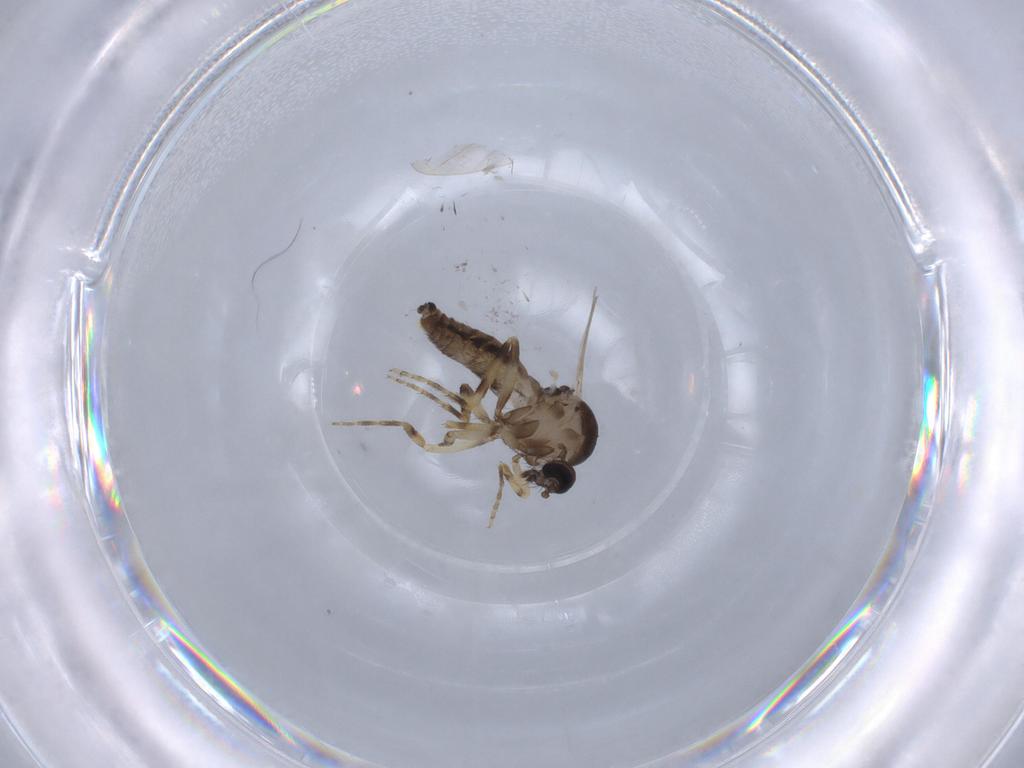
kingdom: Animalia
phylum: Arthropoda
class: Insecta
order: Diptera
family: Ceratopogonidae
